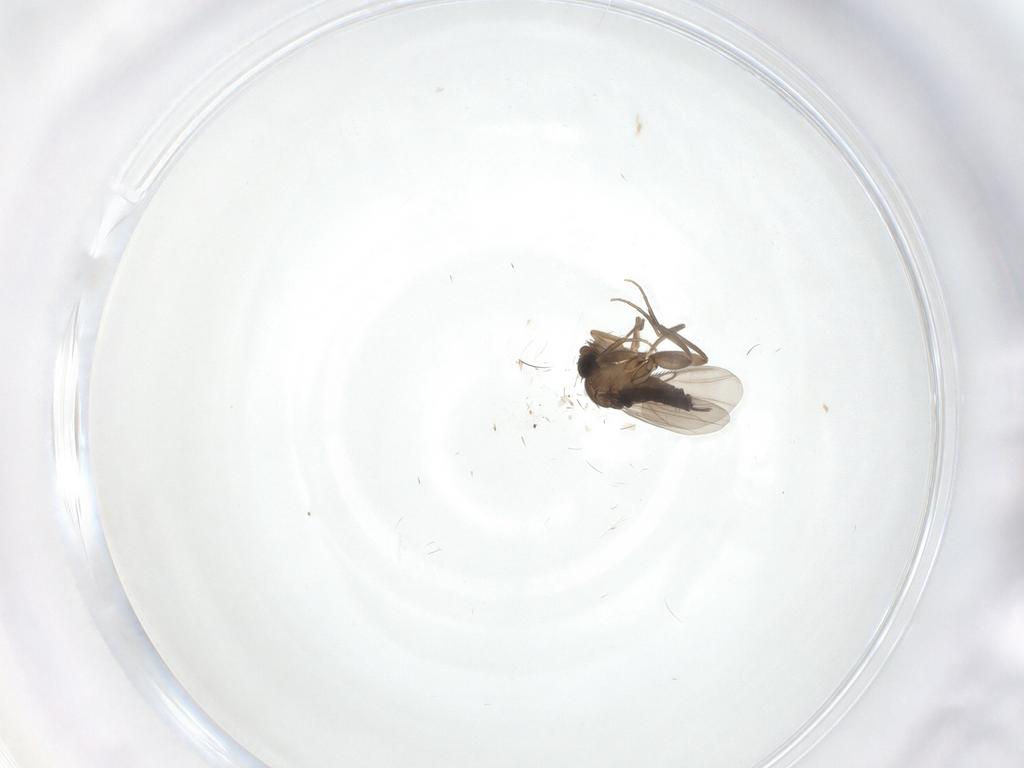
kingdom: Animalia
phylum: Arthropoda
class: Insecta
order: Diptera
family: Phoridae
